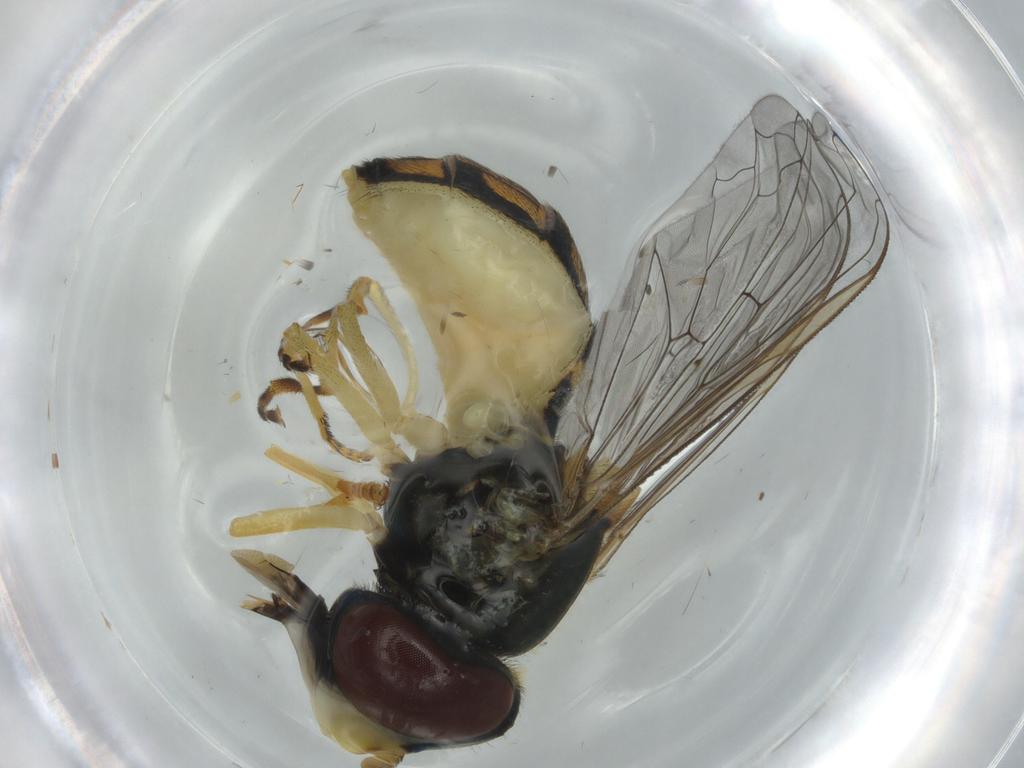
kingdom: Animalia
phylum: Arthropoda
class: Insecta
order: Diptera
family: Syrphidae
